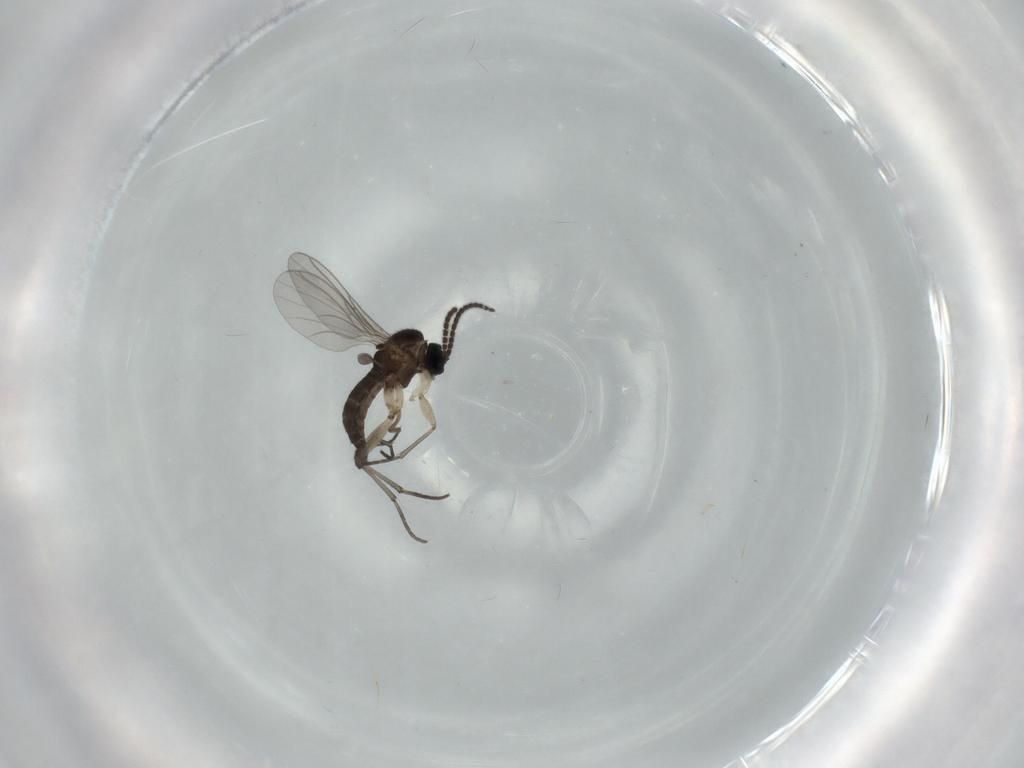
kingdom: Animalia
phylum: Arthropoda
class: Insecta
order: Diptera
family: Sciaridae
